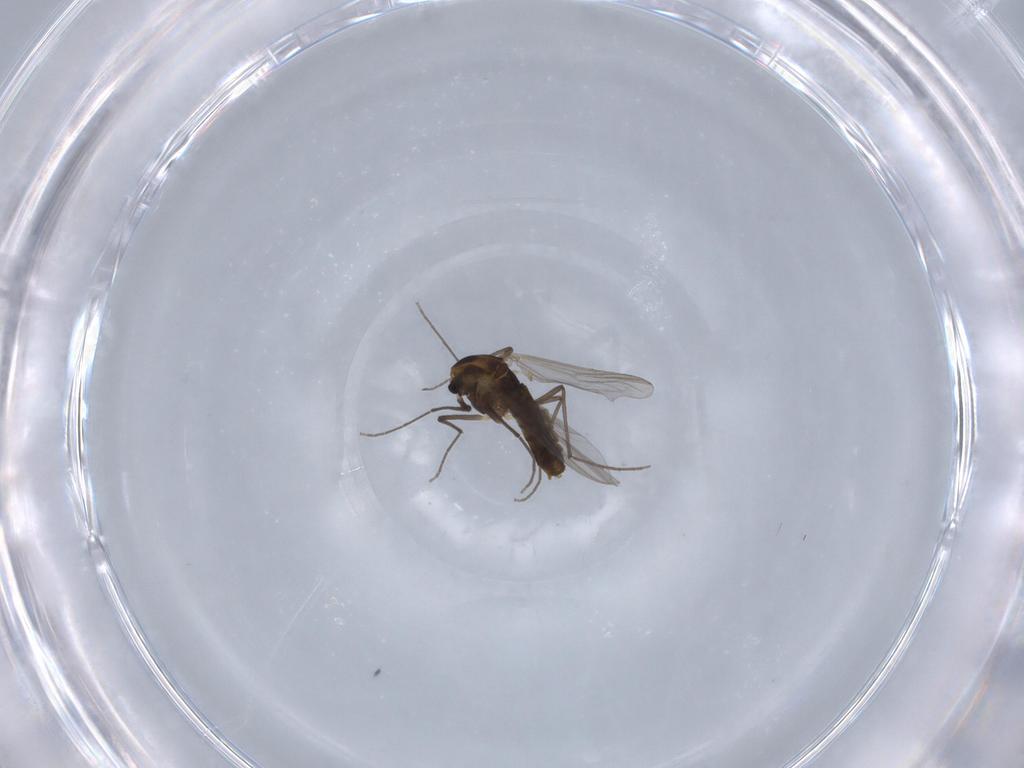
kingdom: Animalia
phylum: Arthropoda
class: Insecta
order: Diptera
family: Chironomidae
